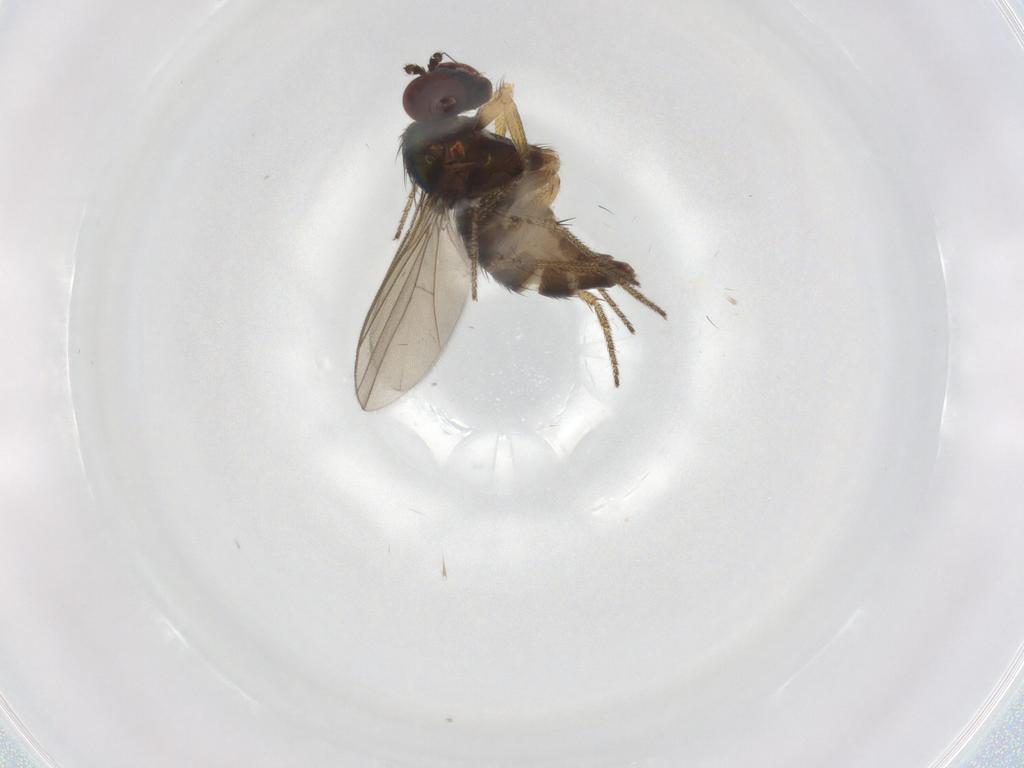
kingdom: Animalia
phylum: Arthropoda
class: Insecta
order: Diptera
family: Dolichopodidae
